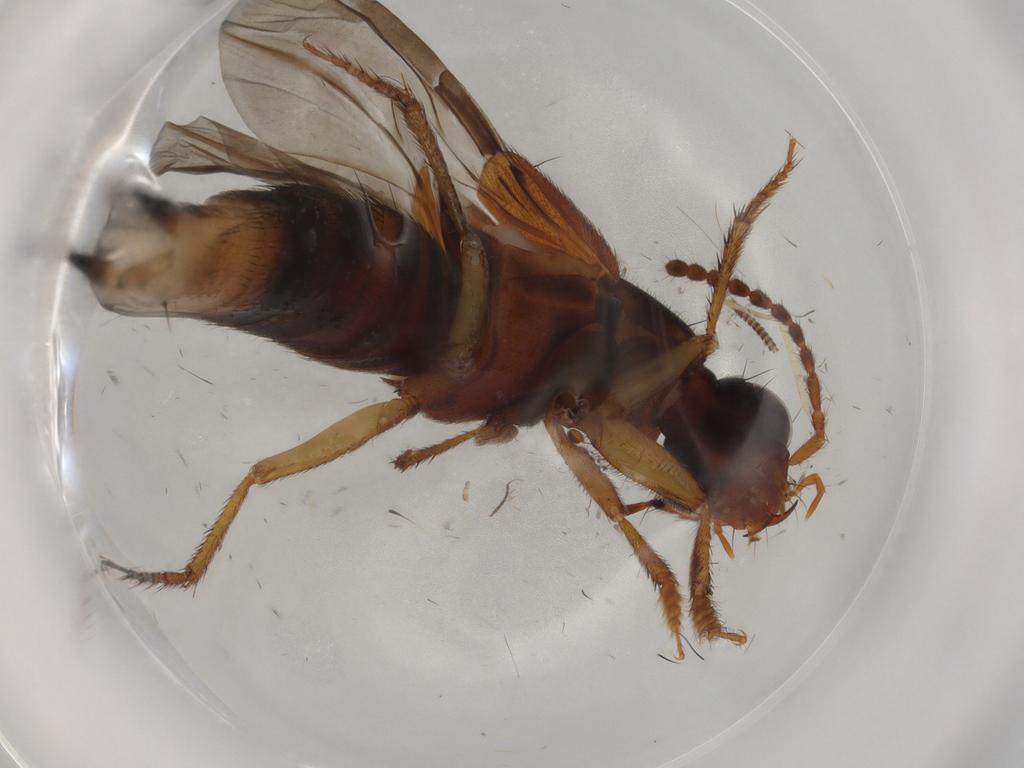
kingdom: Animalia
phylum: Arthropoda
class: Insecta
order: Coleoptera
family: Staphylinidae
